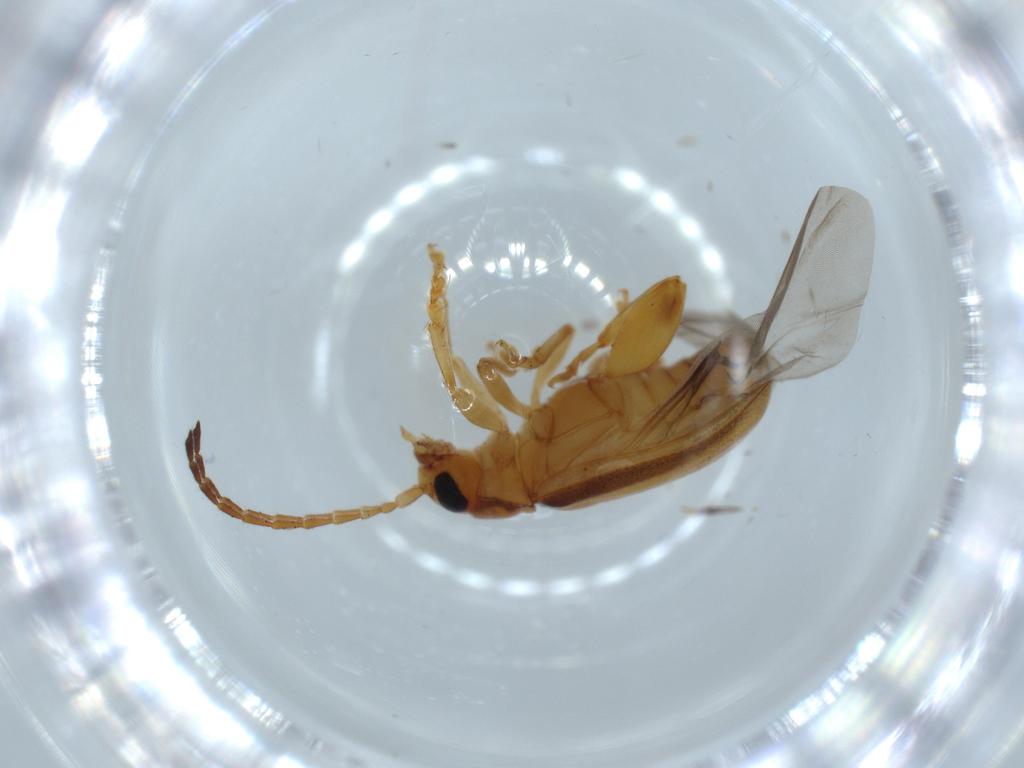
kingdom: Animalia
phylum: Arthropoda
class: Insecta
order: Coleoptera
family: Chrysomelidae
